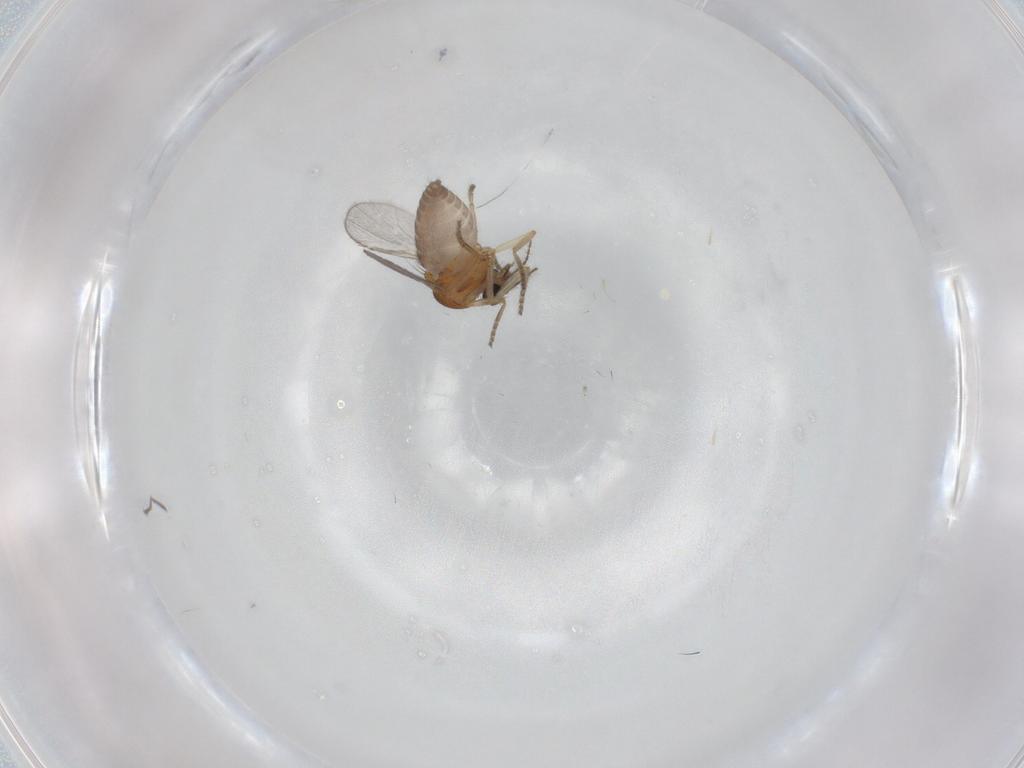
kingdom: Animalia
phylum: Arthropoda
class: Insecta
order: Diptera
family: Ceratopogonidae
